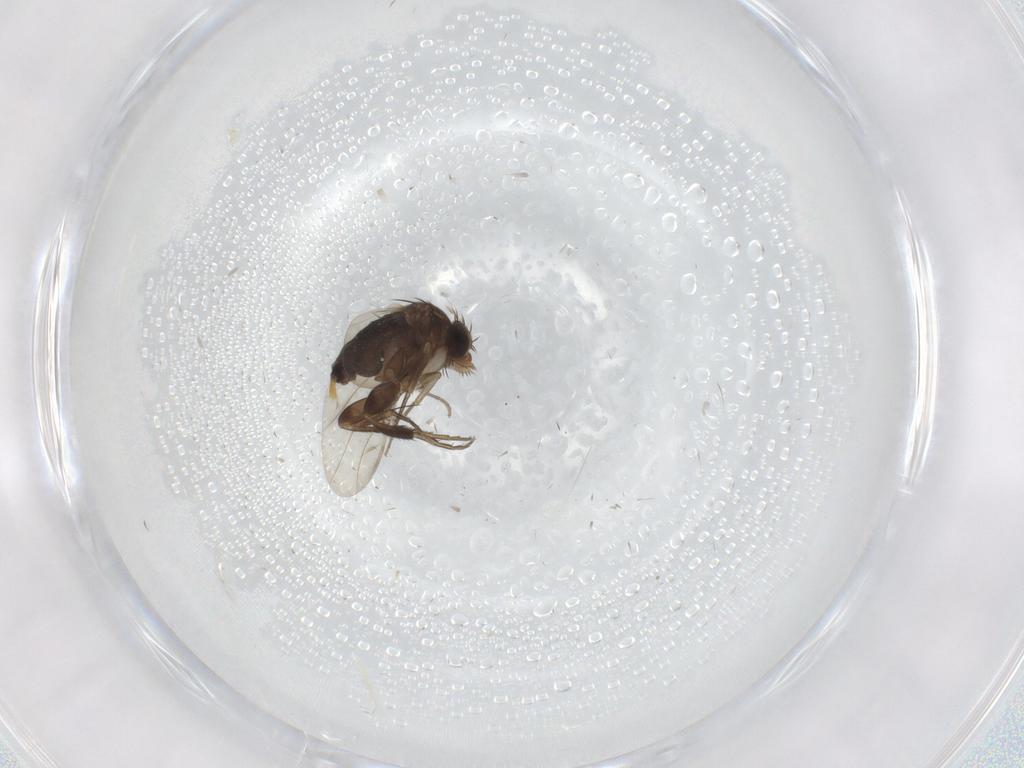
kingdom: Animalia
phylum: Arthropoda
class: Insecta
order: Diptera
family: Phoridae
